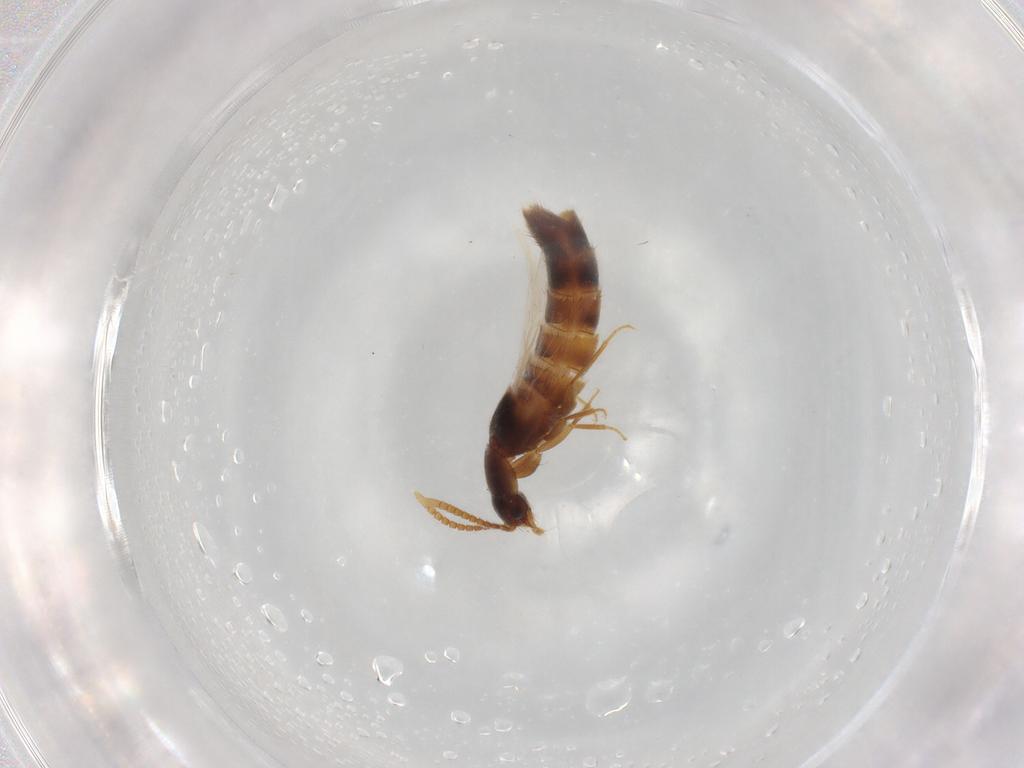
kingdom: Animalia
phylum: Arthropoda
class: Insecta
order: Coleoptera
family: Staphylinidae
